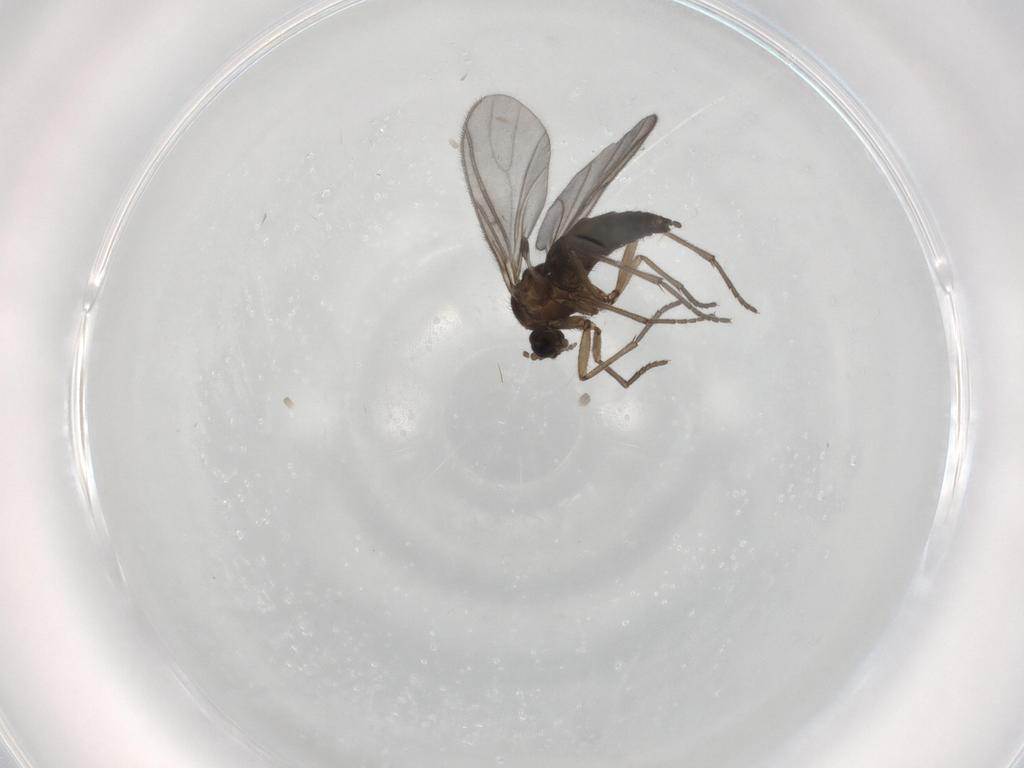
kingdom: Animalia
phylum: Arthropoda
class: Insecta
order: Diptera
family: Sciaridae
